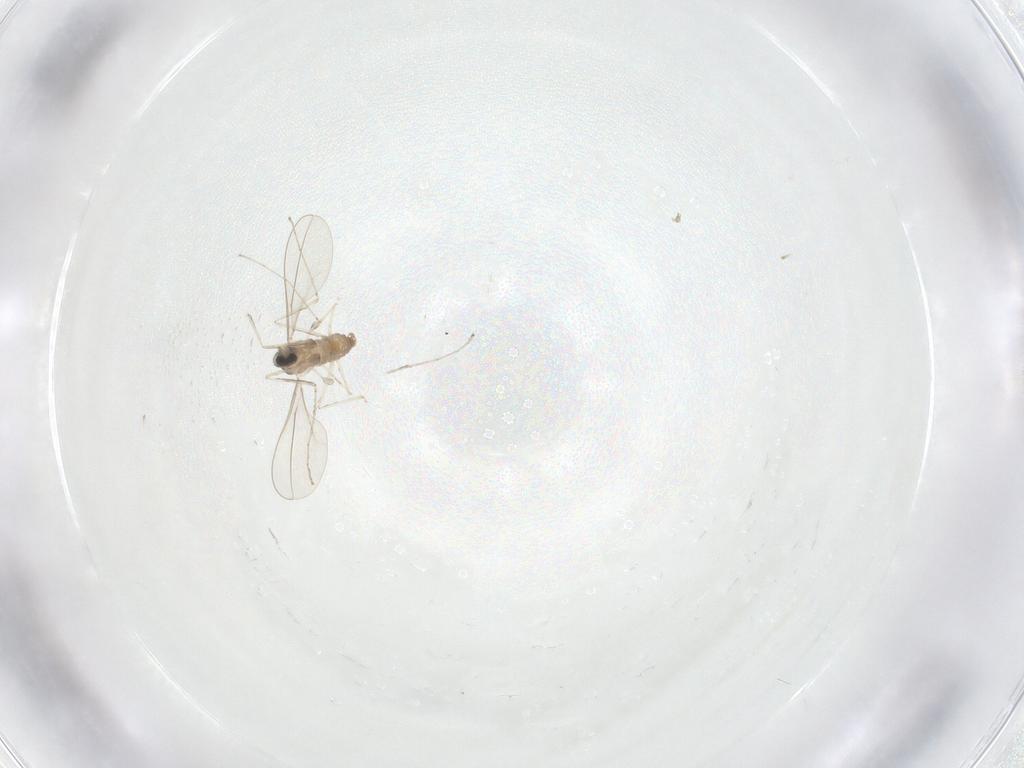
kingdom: Animalia
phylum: Arthropoda
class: Insecta
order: Diptera
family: Cecidomyiidae
